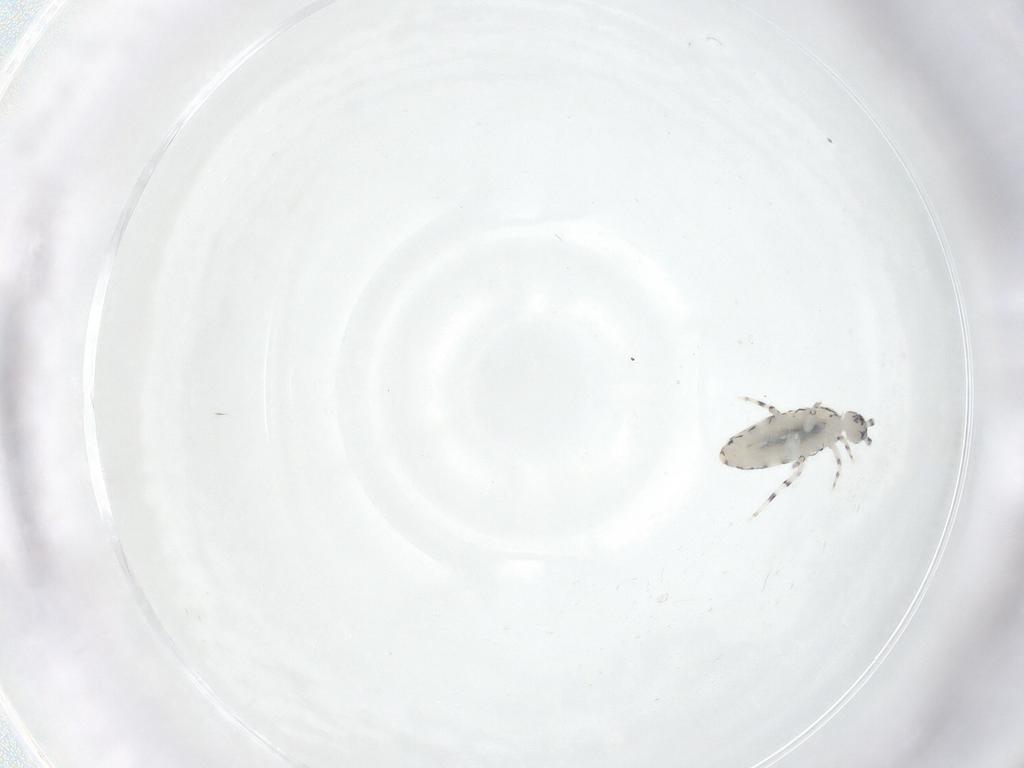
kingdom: Animalia
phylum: Arthropoda
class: Collembola
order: Entomobryomorpha
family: Entomobryidae
